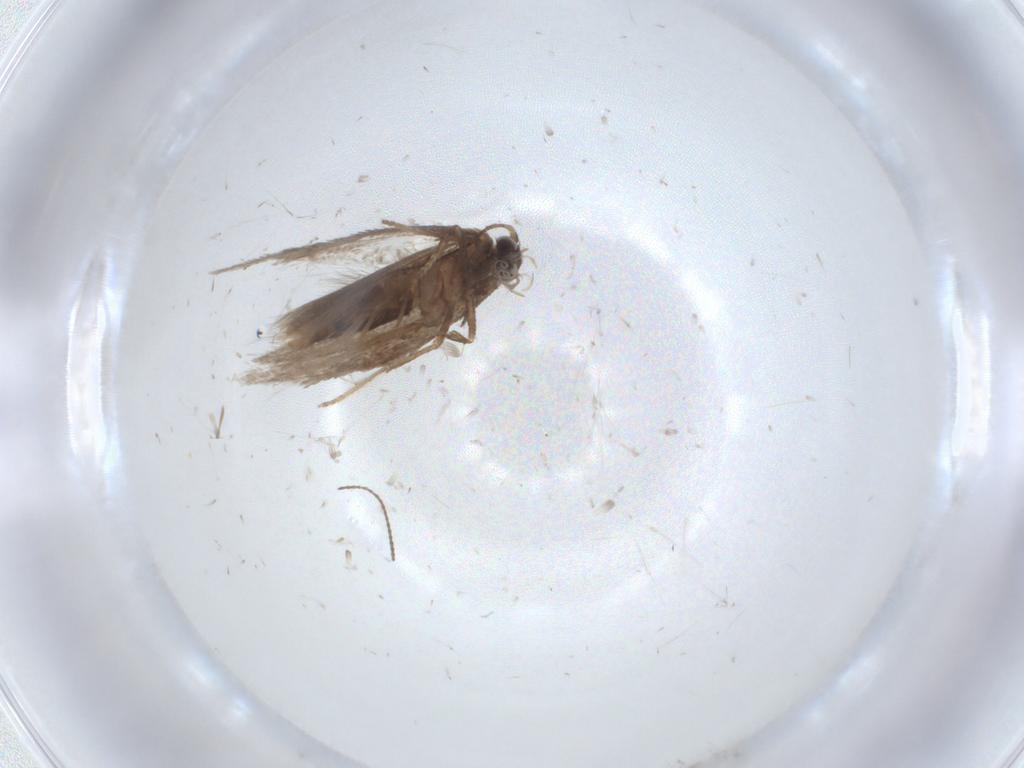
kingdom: Animalia
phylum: Arthropoda
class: Insecta
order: Lepidoptera
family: Nepticulidae
